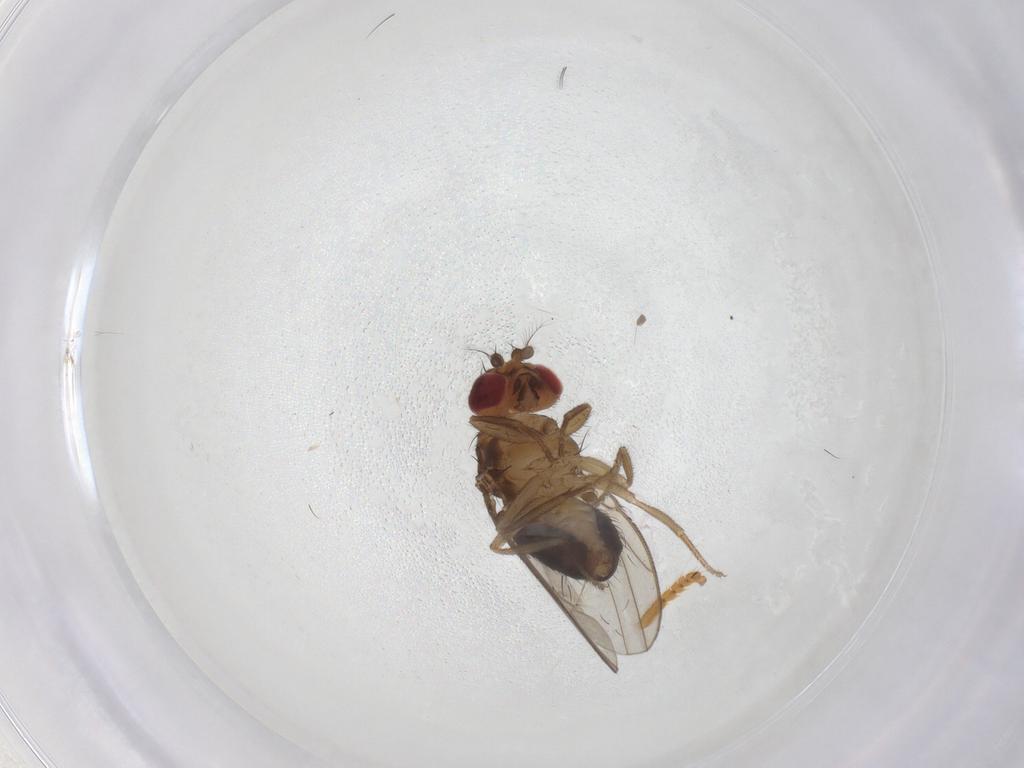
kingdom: Animalia
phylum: Arthropoda
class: Insecta
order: Diptera
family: Drosophilidae
